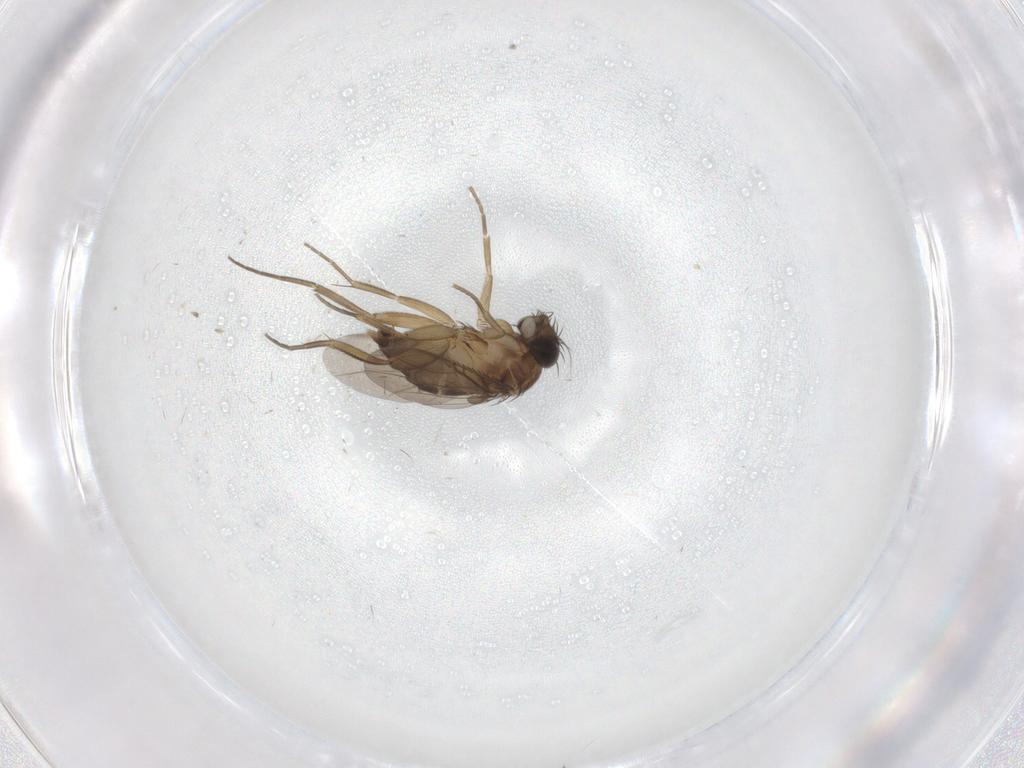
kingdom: Animalia
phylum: Arthropoda
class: Insecta
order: Diptera
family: Phoridae
